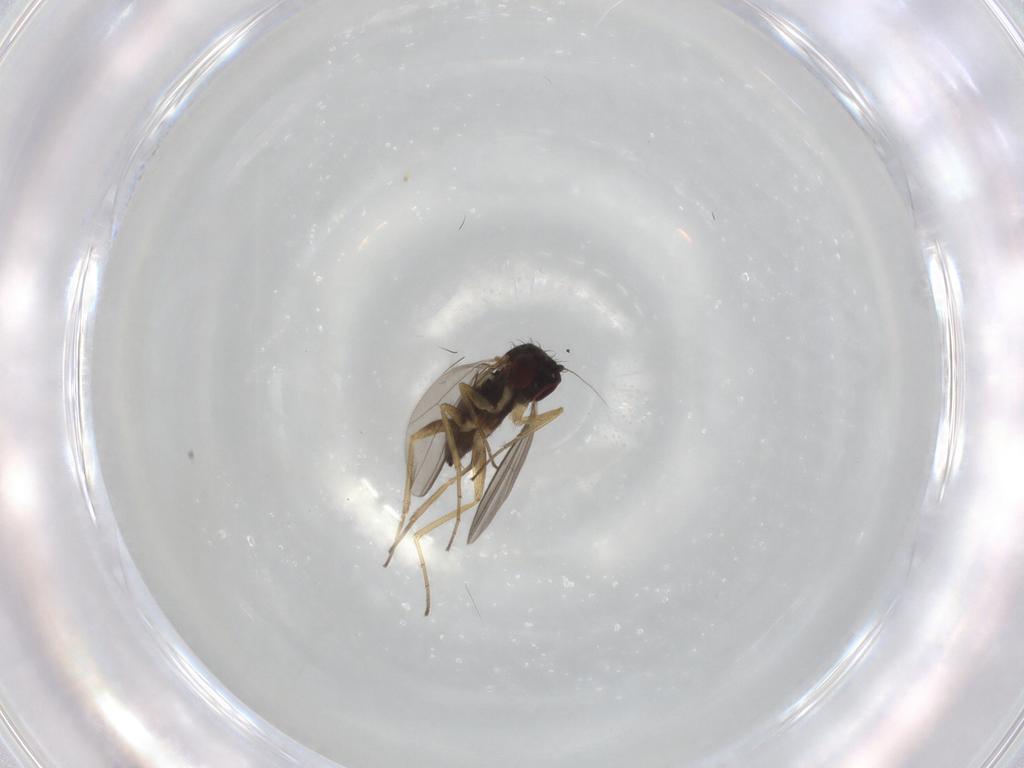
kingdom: Animalia
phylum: Arthropoda
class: Insecta
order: Diptera
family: Dolichopodidae
